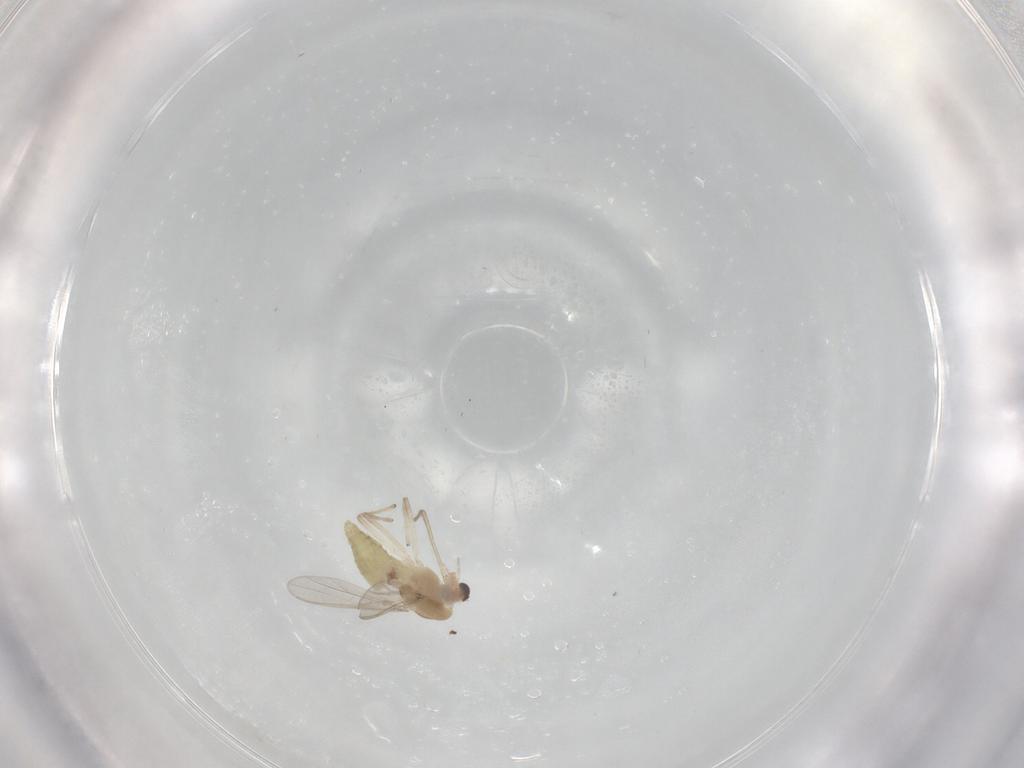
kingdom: Animalia
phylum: Arthropoda
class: Insecta
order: Diptera
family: Chironomidae
